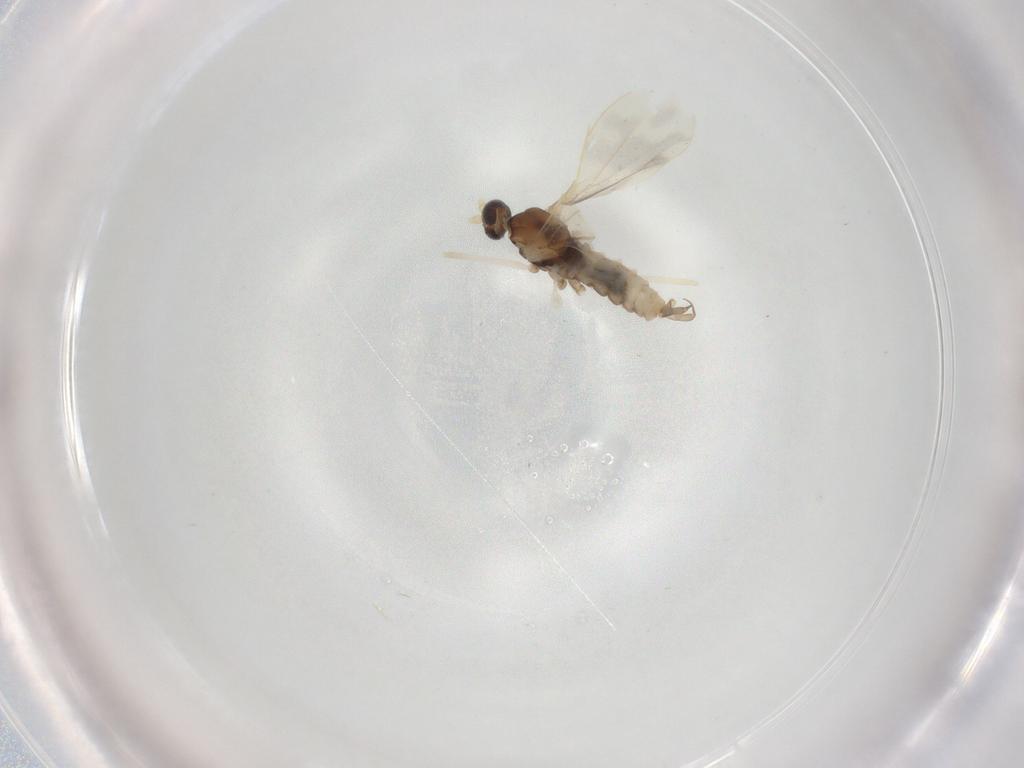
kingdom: Animalia
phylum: Arthropoda
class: Insecta
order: Diptera
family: Cecidomyiidae
